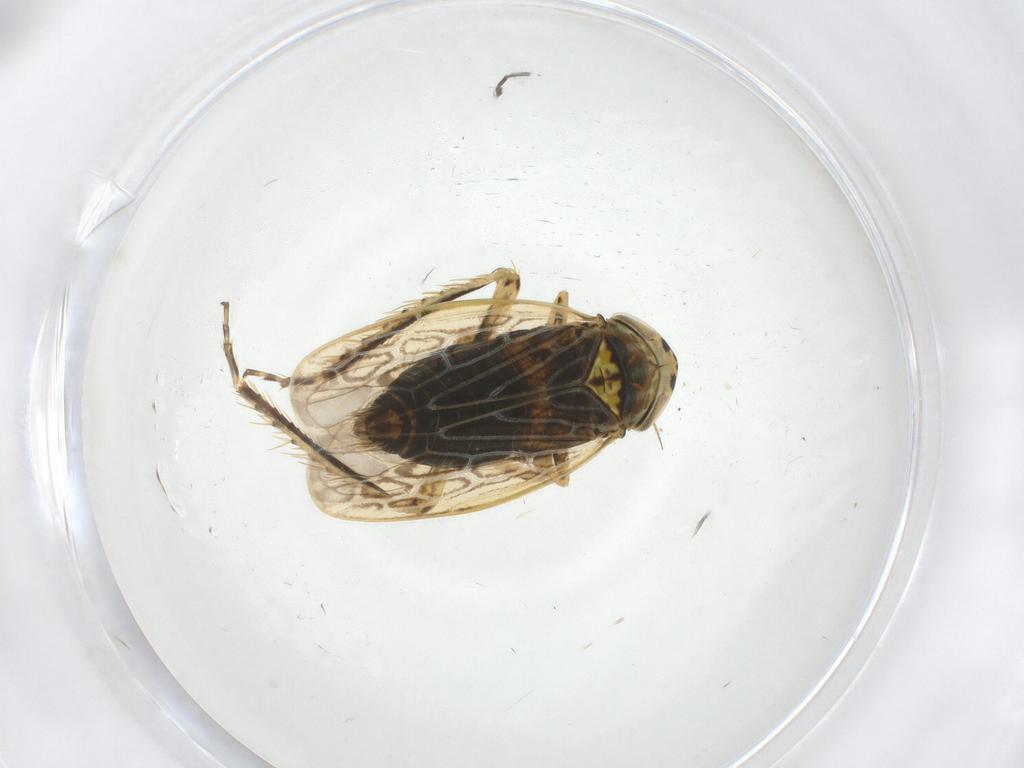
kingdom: Animalia
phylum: Arthropoda
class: Insecta
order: Hemiptera
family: Cicadellidae
